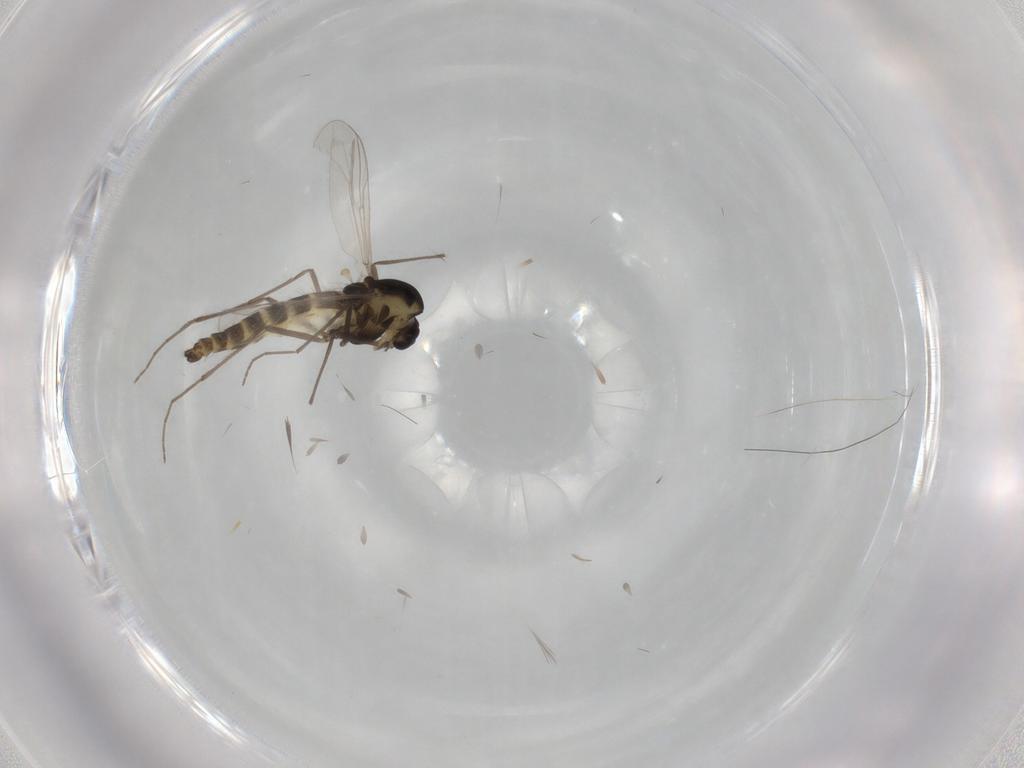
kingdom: Animalia
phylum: Arthropoda
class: Insecta
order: Diptera
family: Chironomidae
